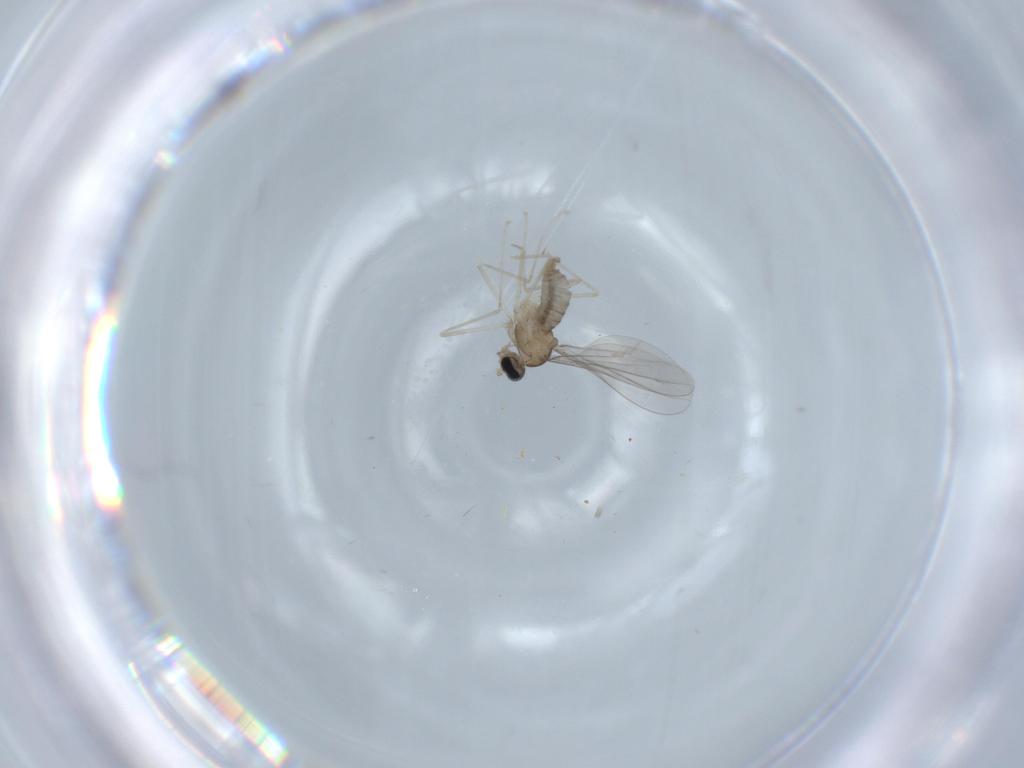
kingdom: Animalia
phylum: Arthropoda
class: Insecta
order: Diptera
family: Cecidomyiidae
